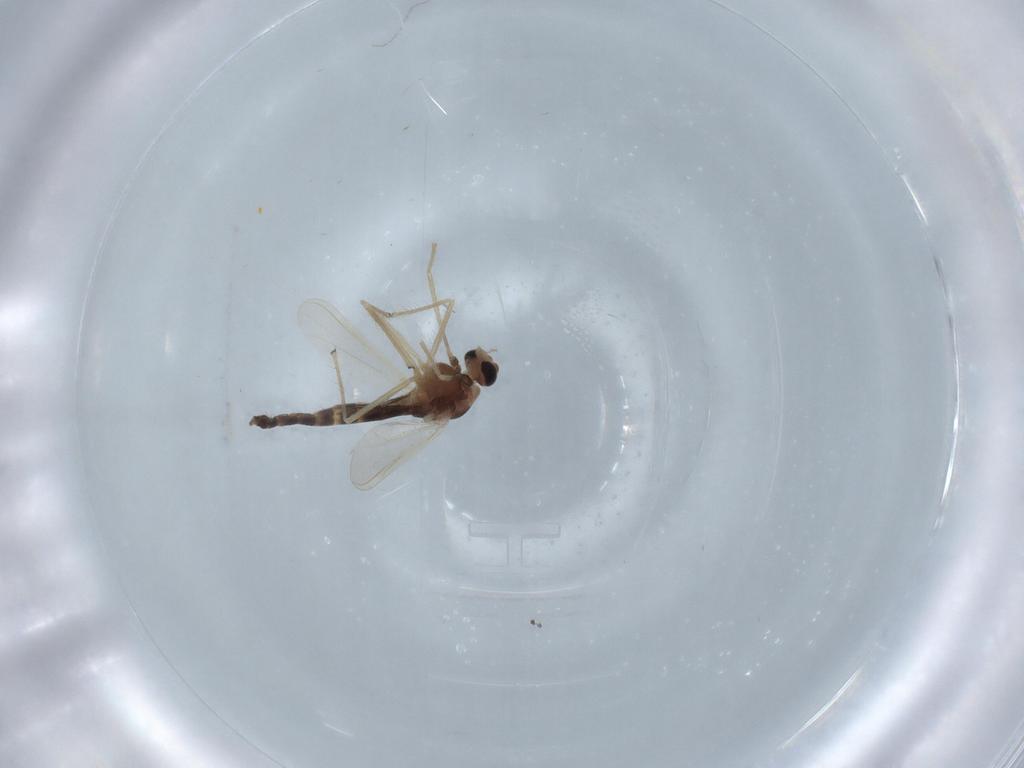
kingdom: Animalia
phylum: Arthropoda
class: Insecta
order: Diptera
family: Cecidomyiidae
